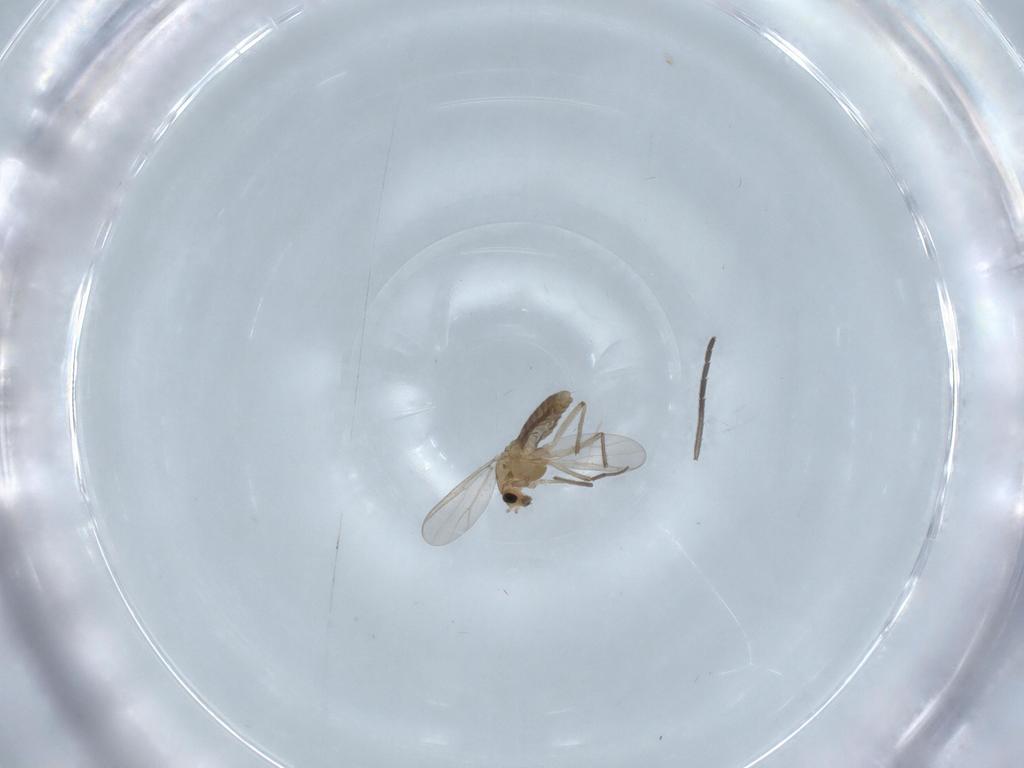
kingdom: Animalia
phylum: Arthropoda
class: Insecta
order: Diptera
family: Chironomidae
